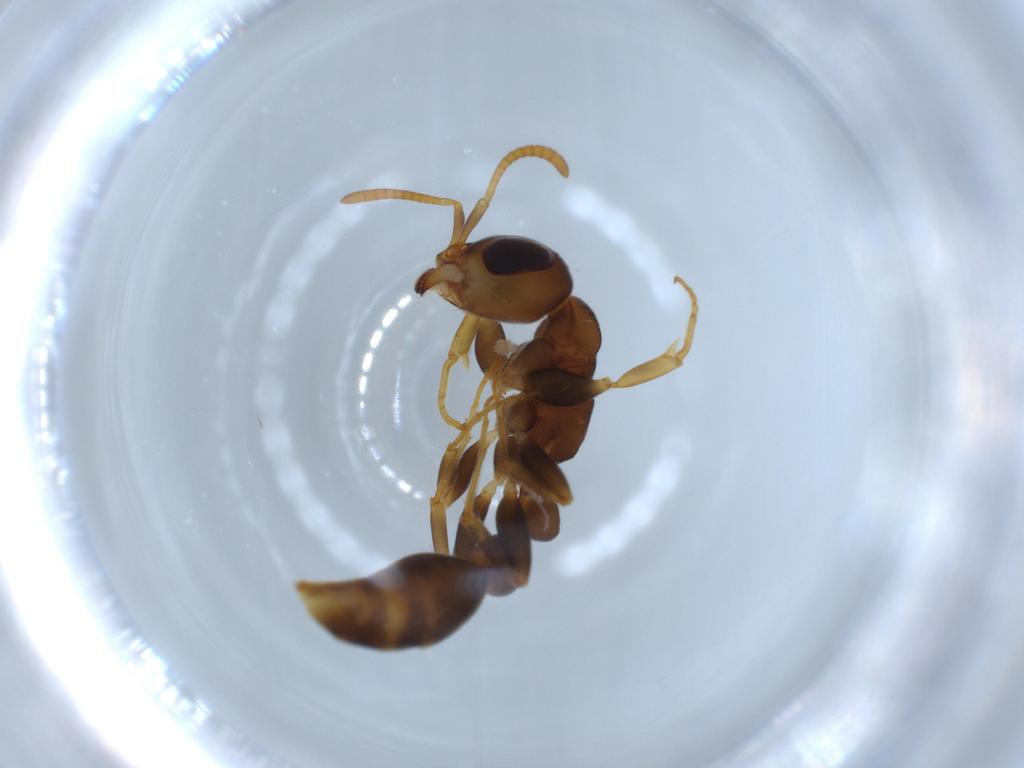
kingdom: Animalia
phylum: Arthropoda
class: Insecta
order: Hymenoptera
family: Formicidae
